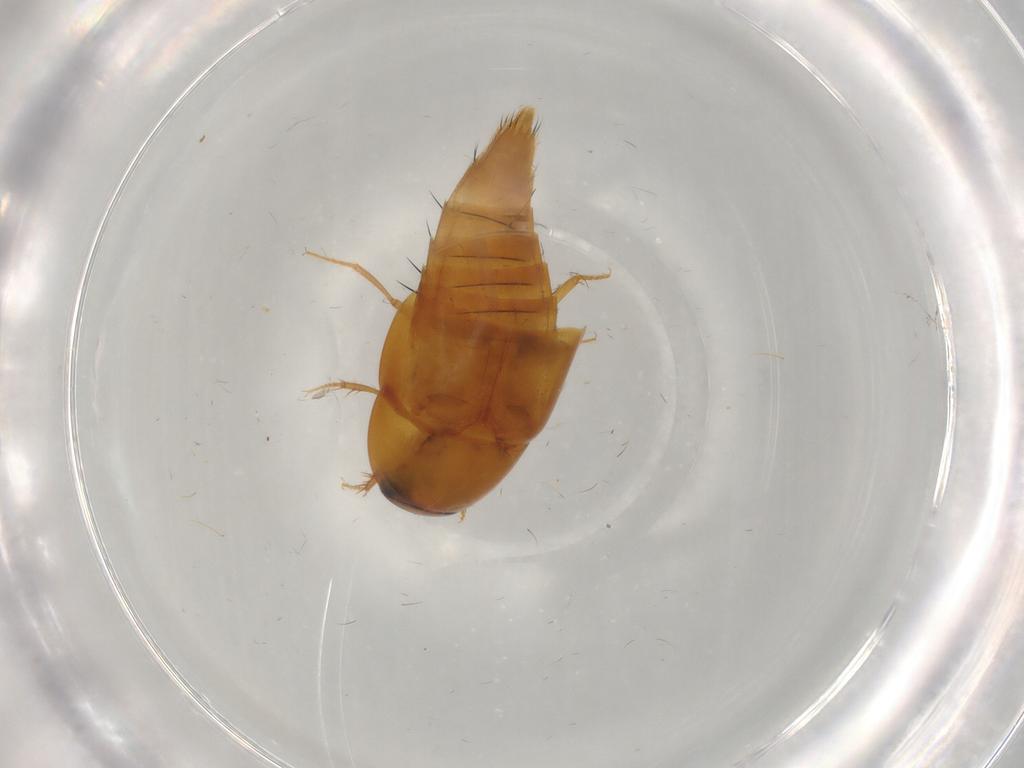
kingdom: Animalia
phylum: Arthropoda
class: Insecta
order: Coleoptera
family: Staphylinidae
